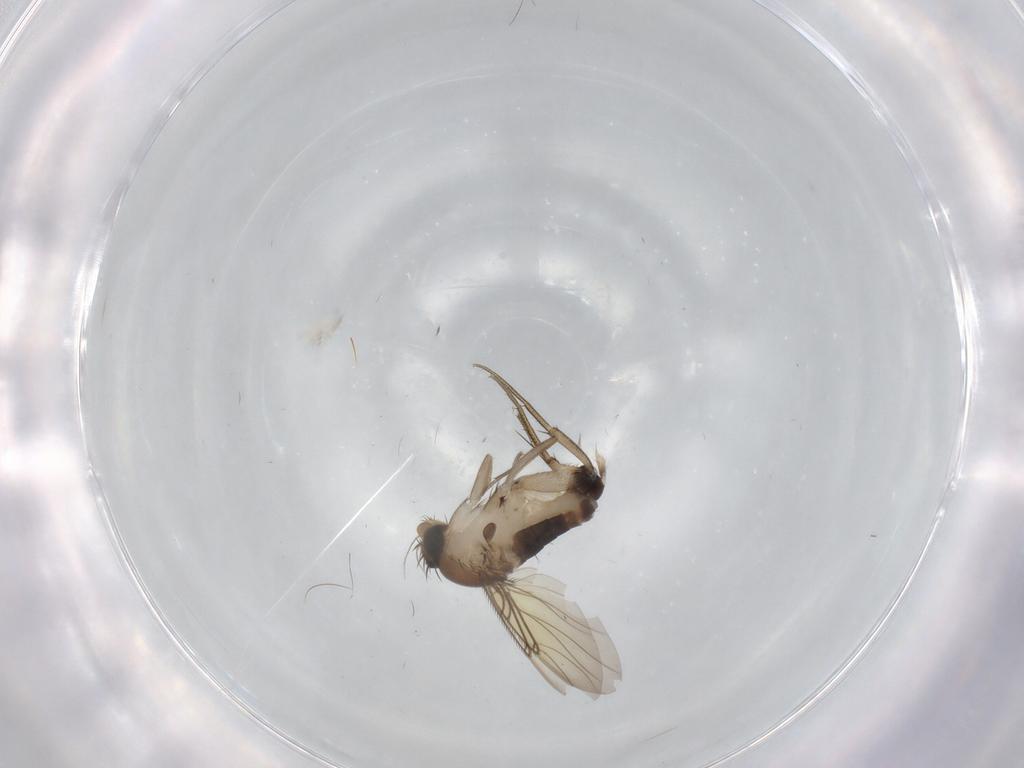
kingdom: Animalia
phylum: Arthropoda
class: Insecta
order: Diptera
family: Phoridae
